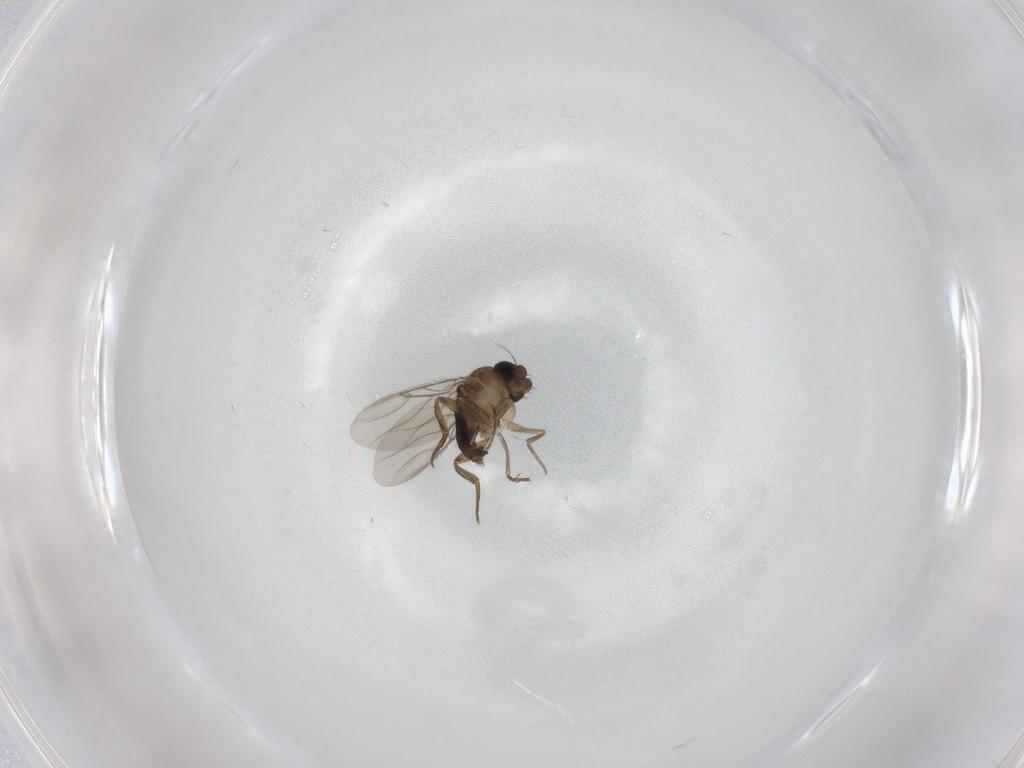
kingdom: Animalia
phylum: Arthropoda
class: Insecta
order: Diptera
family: Phoridae
